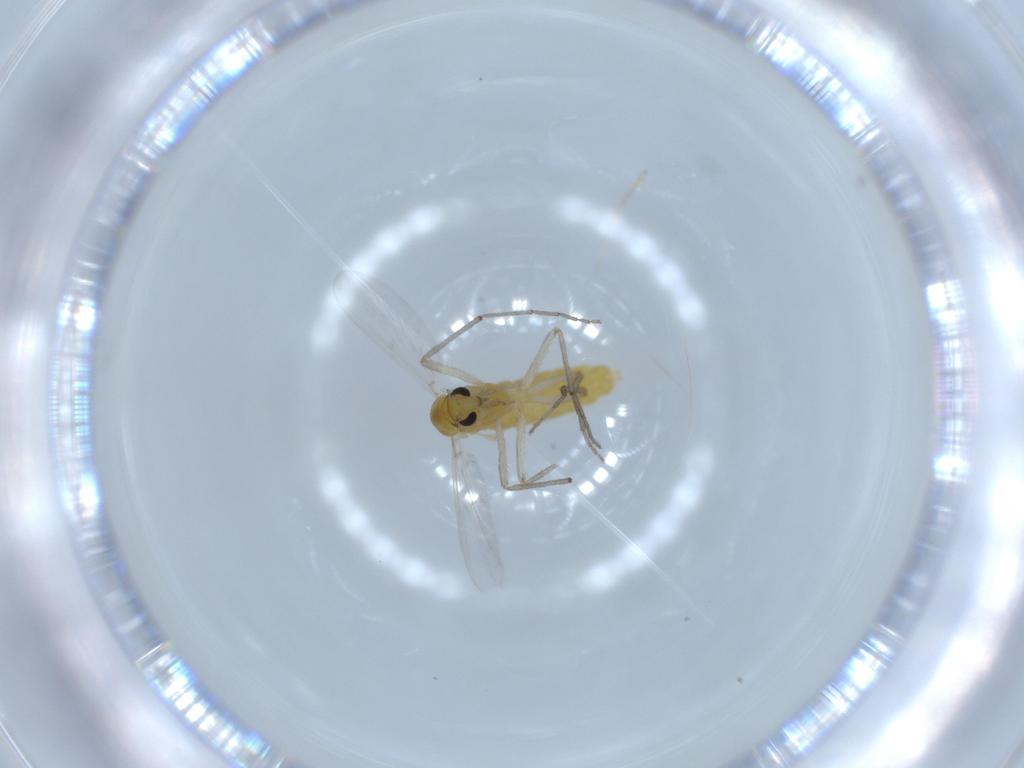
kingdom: Animalia
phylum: Arthropoda
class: Insecta
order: Diptera
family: Chironomidae
